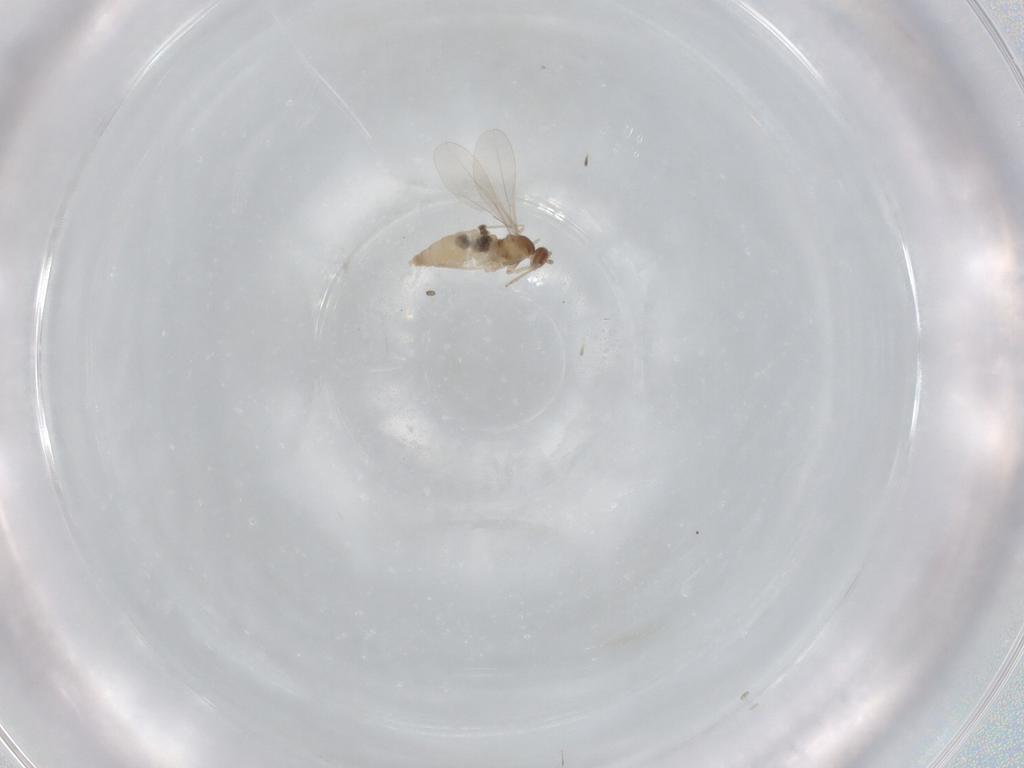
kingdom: Animalia
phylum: Arthropoda
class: Insecta
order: Diptera
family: Cecidomyiidae
